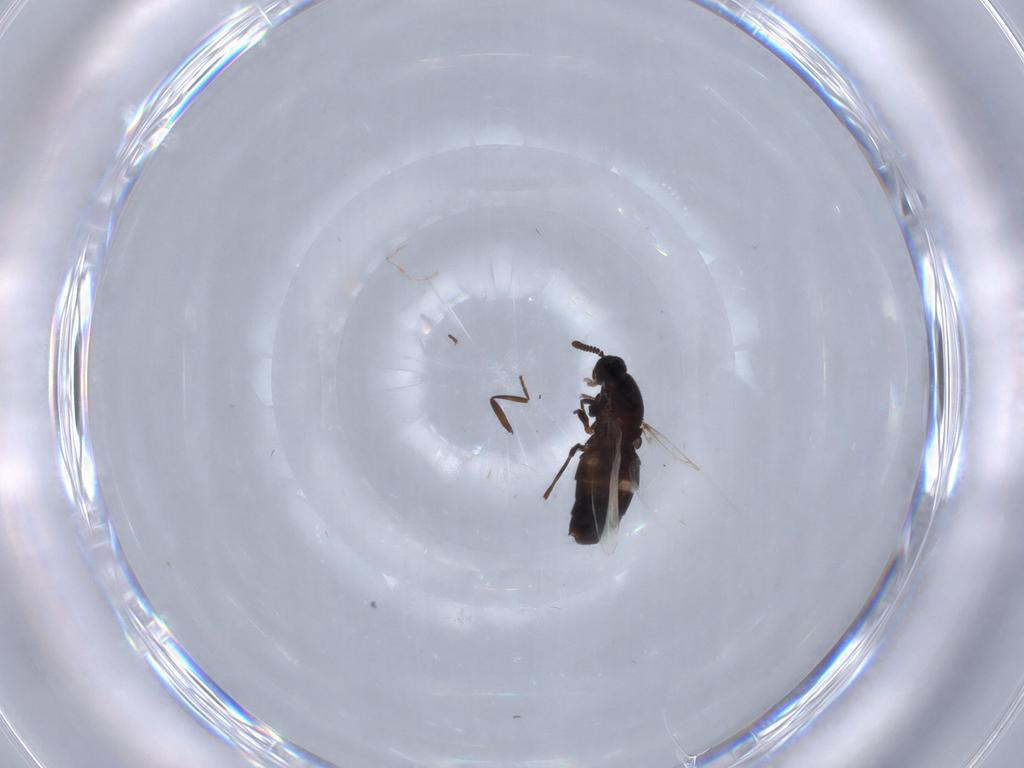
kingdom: Animalia
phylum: Arthropoda
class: Insecta
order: Diptera
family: Scatopsidae
